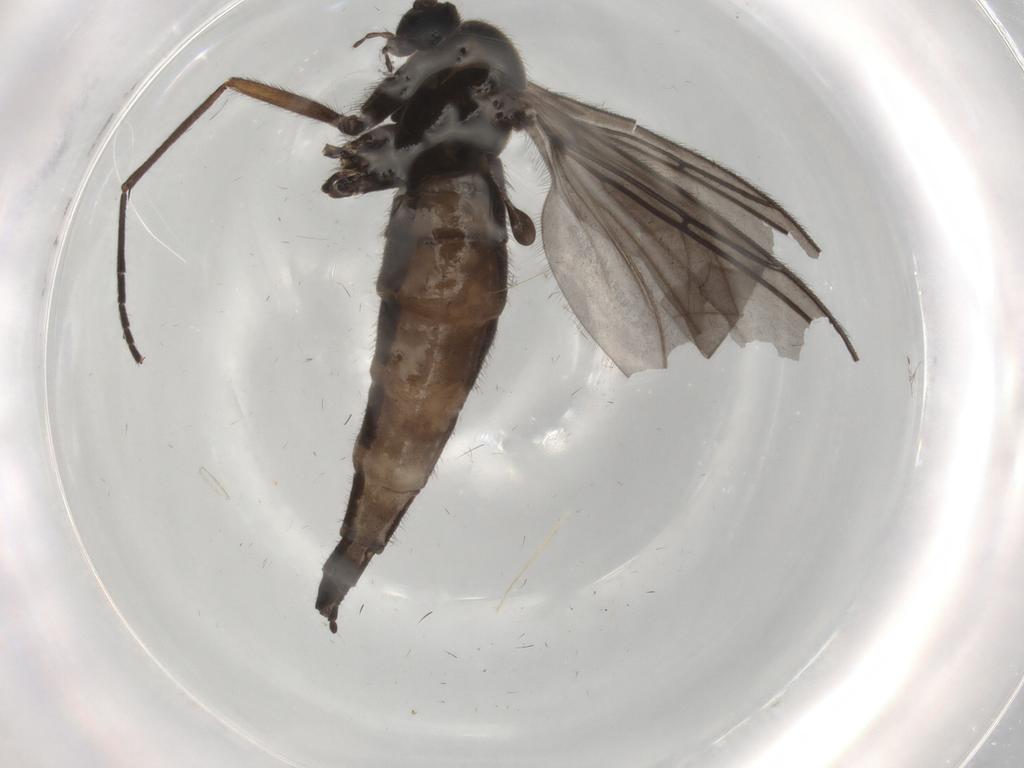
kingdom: Animalia
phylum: Arthropoda
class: Insecta
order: Diptera
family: Sciaridae
